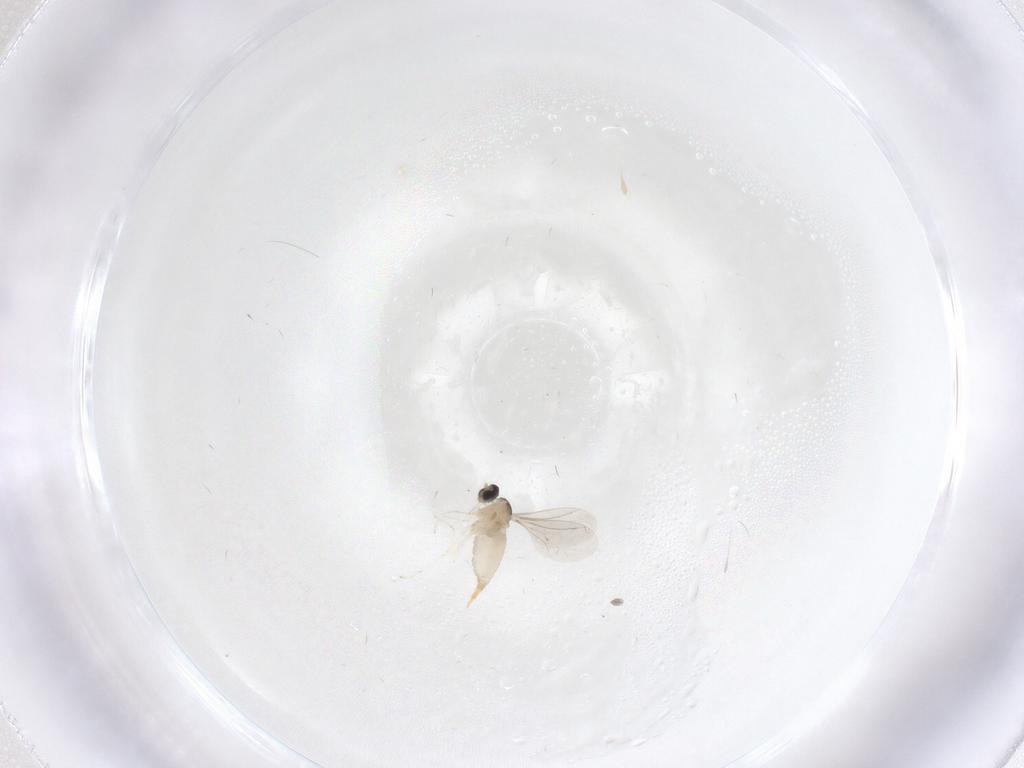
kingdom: Animalia
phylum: Arthropoda
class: Insecta
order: Diptera
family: Cecidomyiidae
